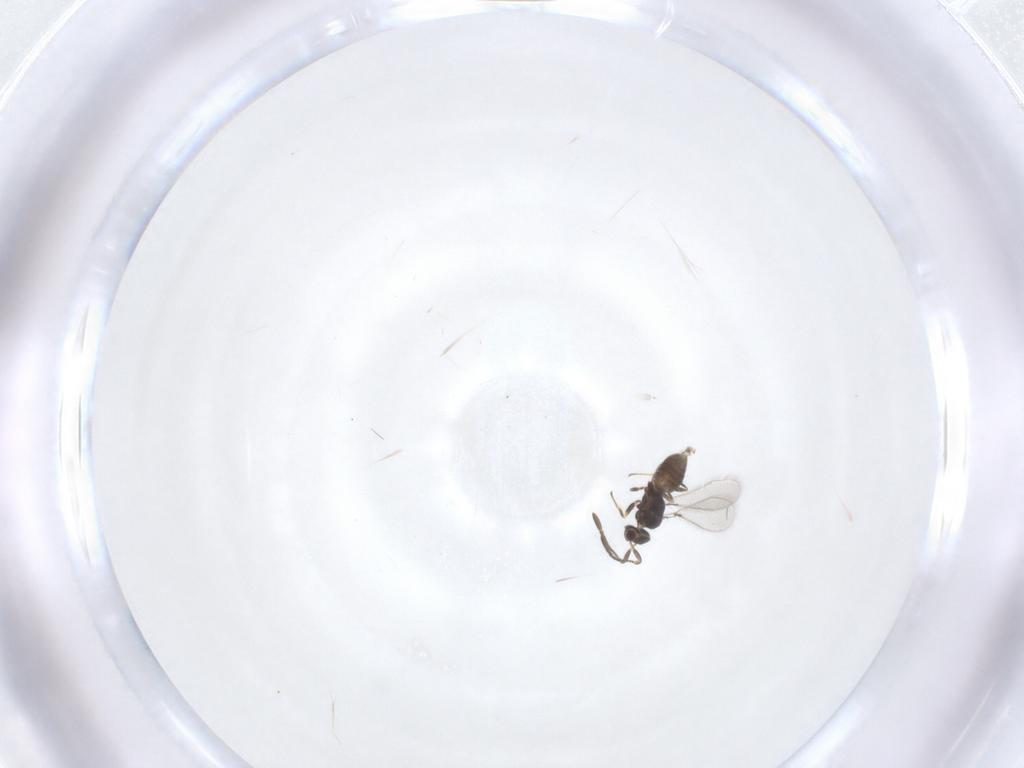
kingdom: Animalia
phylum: Arthropoda
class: Insecta
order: Hymenoptera
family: Mymaridae
